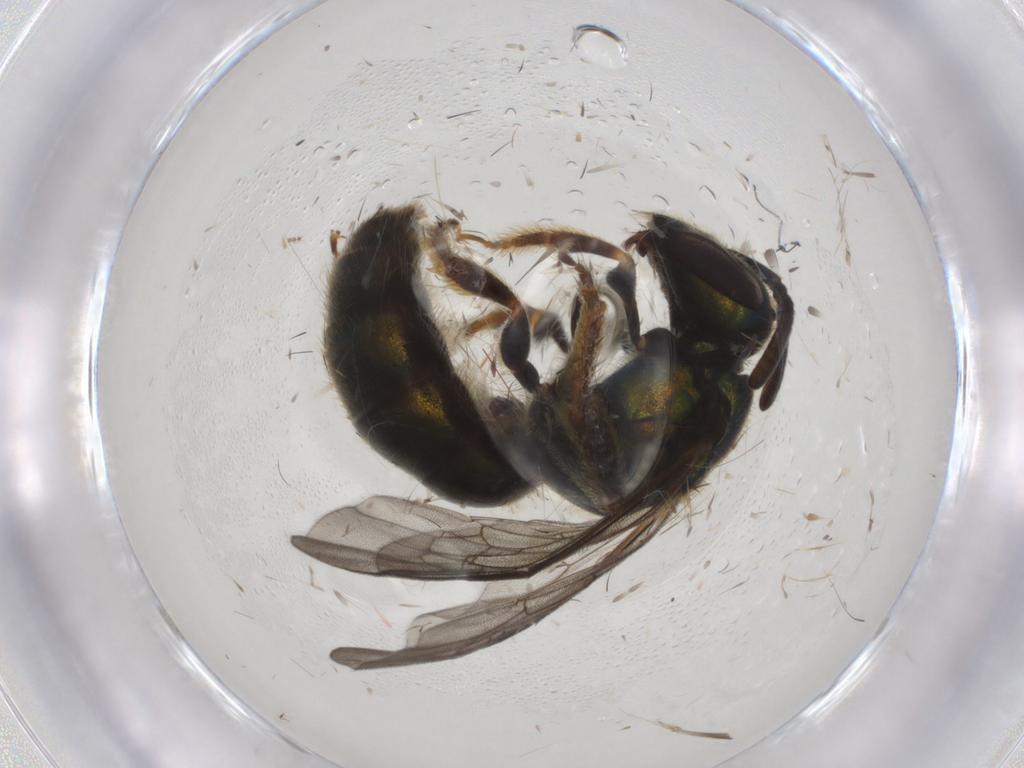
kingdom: Animalia
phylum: Arthropoda
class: Insecta
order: Hymenoptera
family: Halictidae
